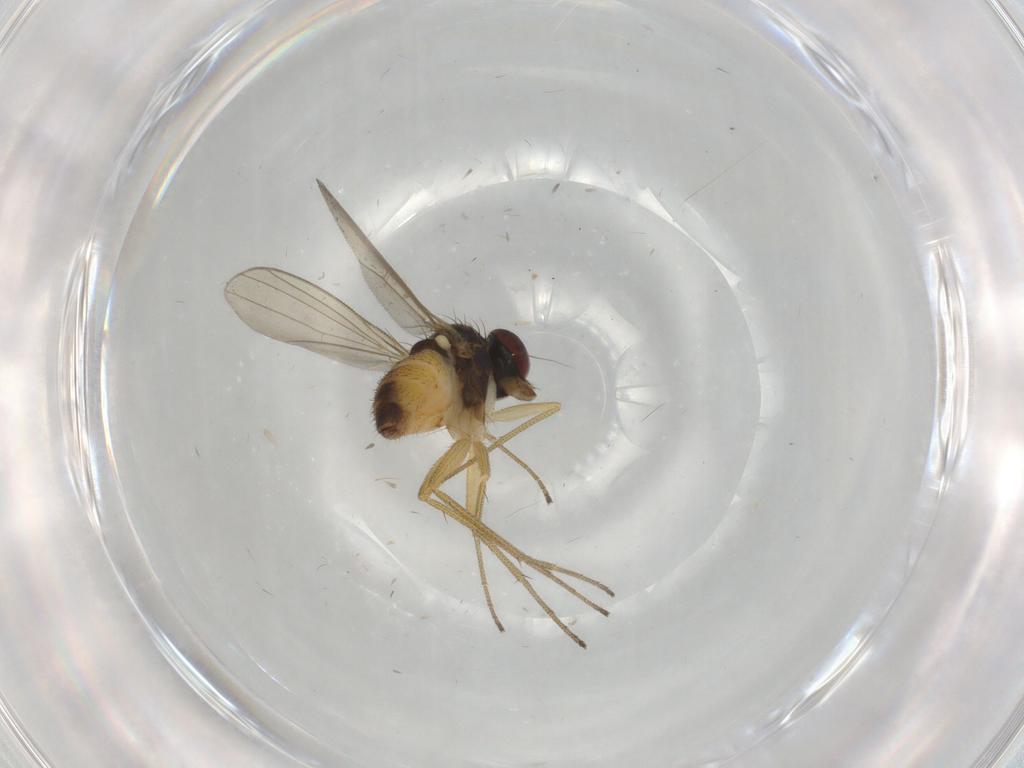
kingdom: Animalia
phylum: Arthropoda
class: Insecta
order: Diptera
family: Dolichopodidae
